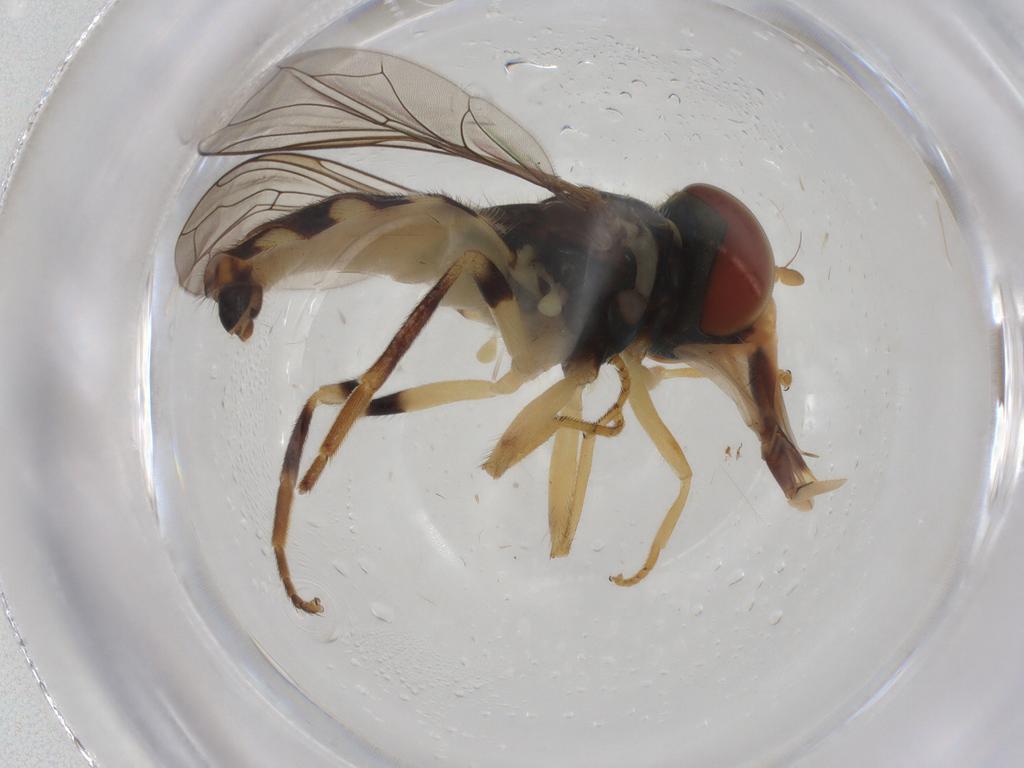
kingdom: Animalia
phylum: Arthropoda
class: Insecta
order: Diptera
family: Syrphidae
